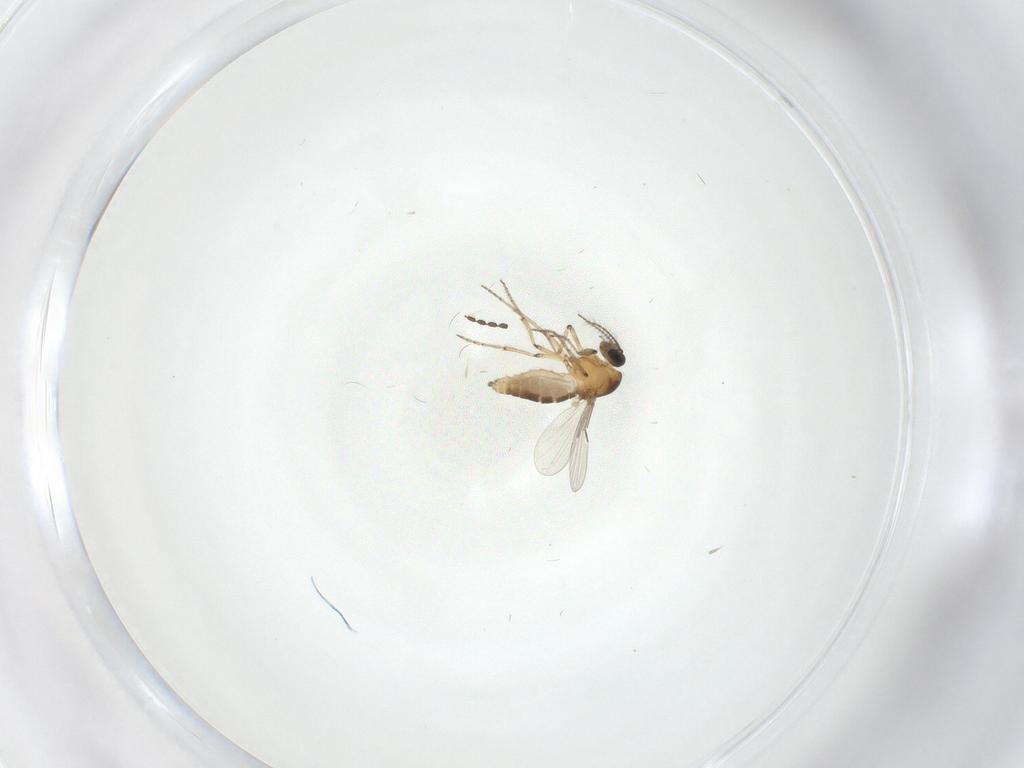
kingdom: Animalia
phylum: Arthropoda
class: Insecta
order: Diptera
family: Ceratopogonidae
